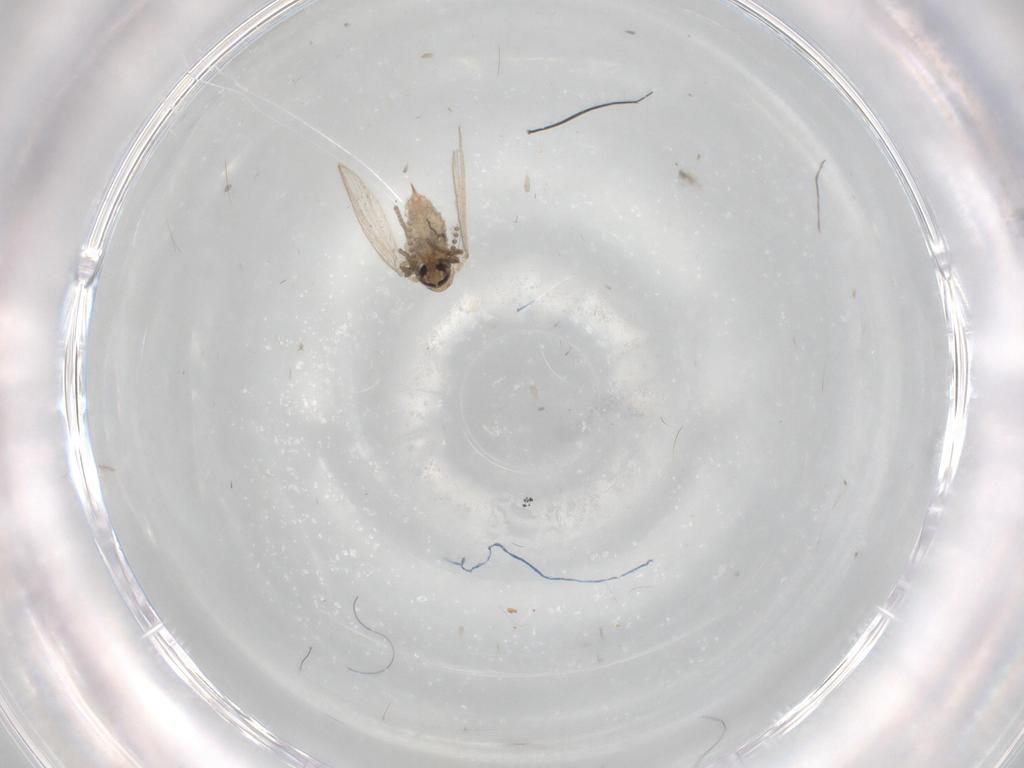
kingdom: Animalia
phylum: Arthropoda
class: Insecta
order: Diptera
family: Psychodidae
